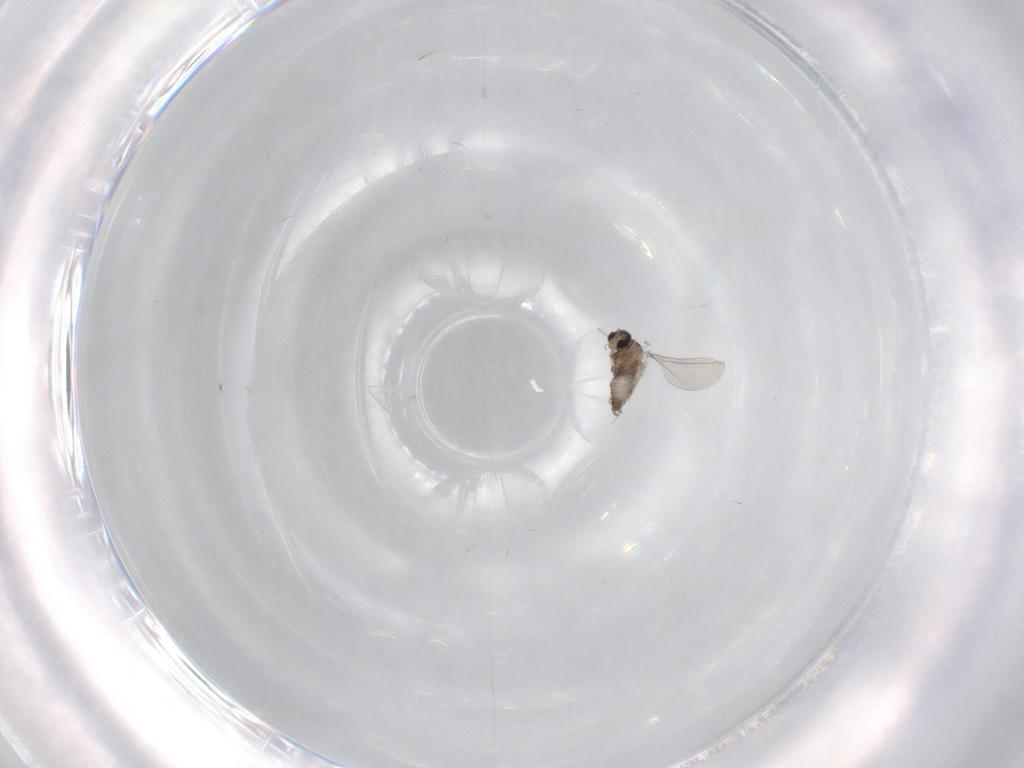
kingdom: Animalia
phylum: Arthropoda
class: Insecta
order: Diptera
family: Cecidomyiidae
